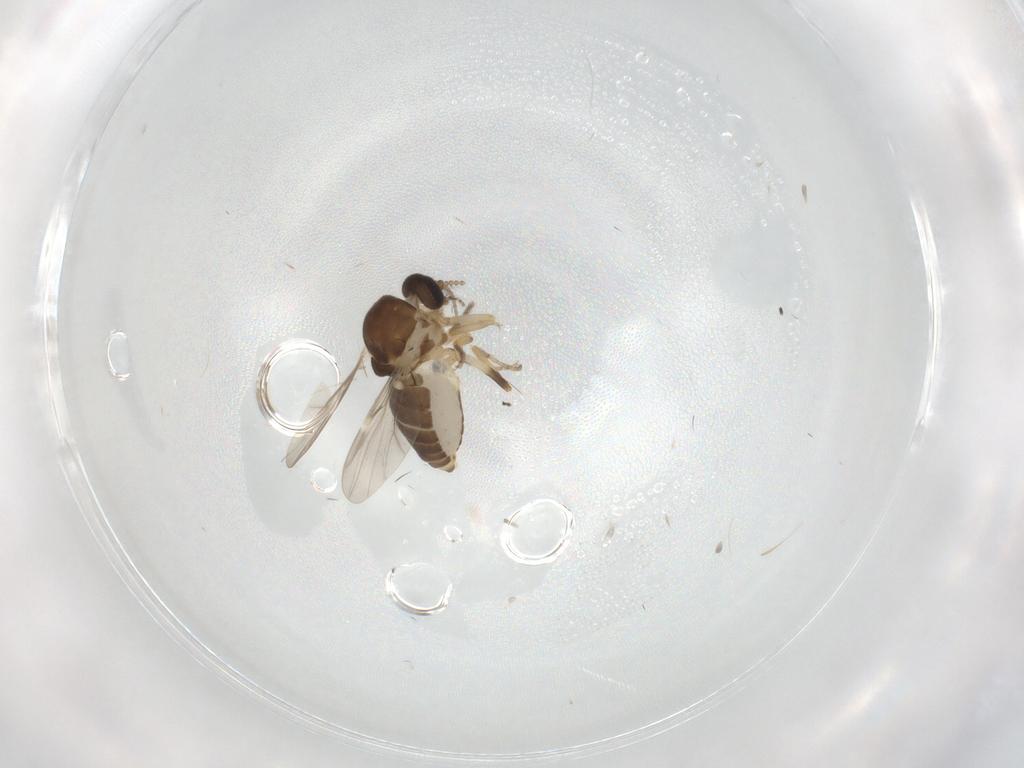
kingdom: Animalia
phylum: Arthropoda
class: Insecta
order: Diptera
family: Ceratopogonidae
